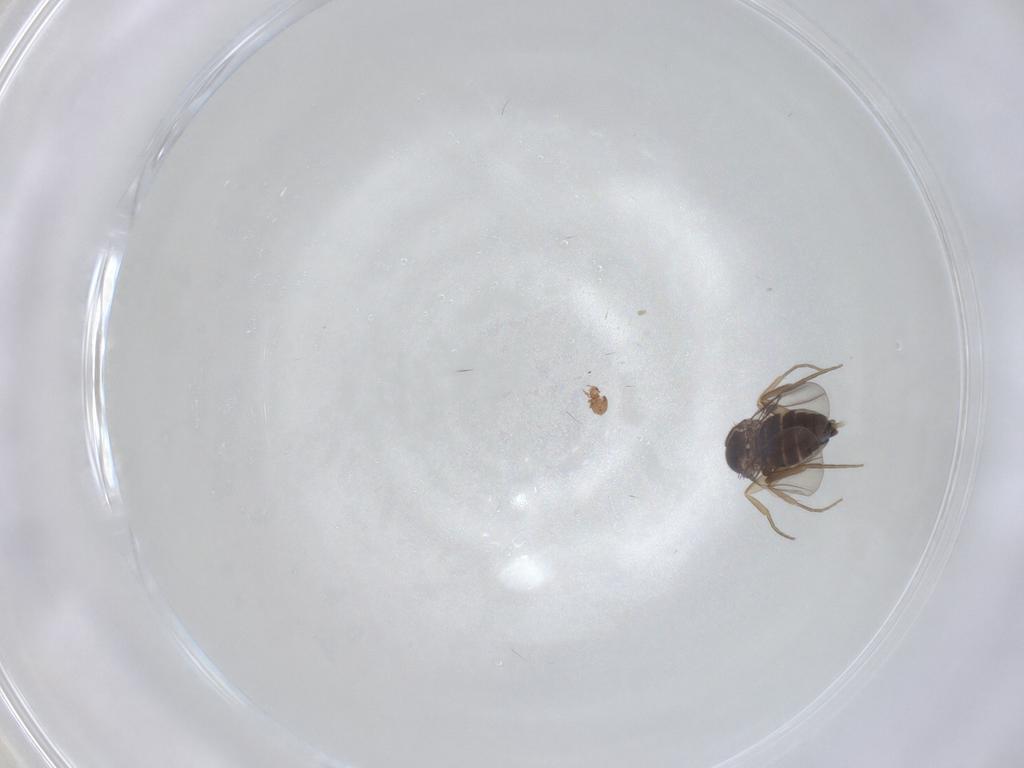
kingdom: Animalia
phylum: Arthropoda
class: Insecta
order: Diptera
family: Phoridae
